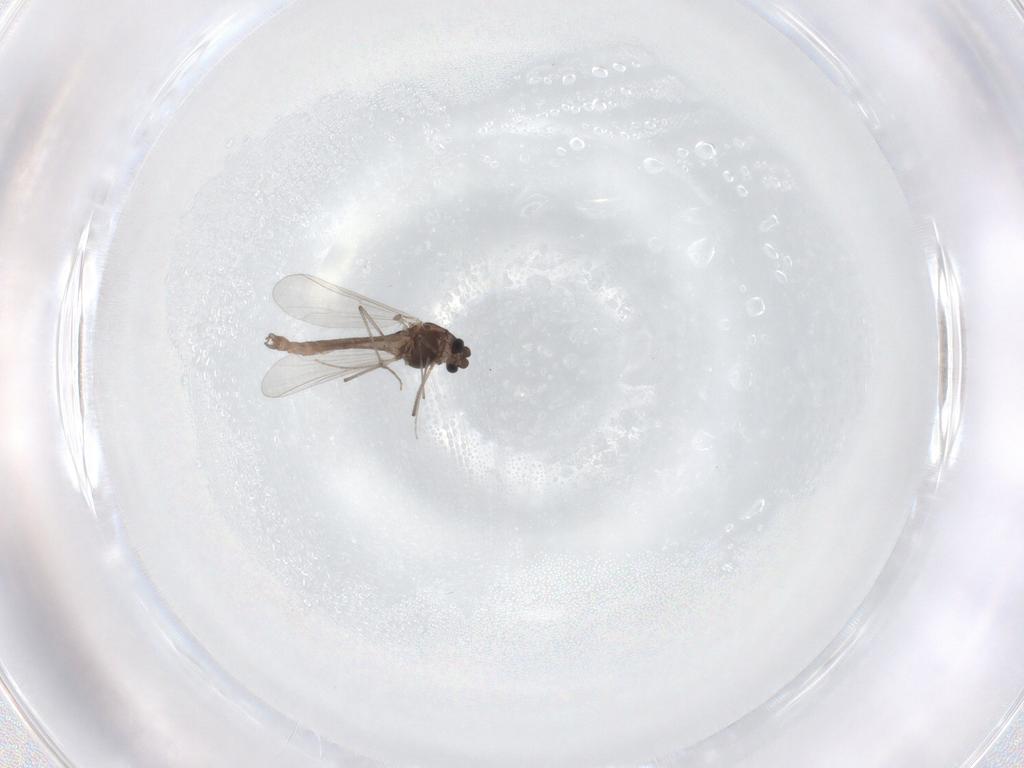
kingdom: Animalia
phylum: Arthropoda
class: Insecta
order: Diptera
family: Chironomidae
